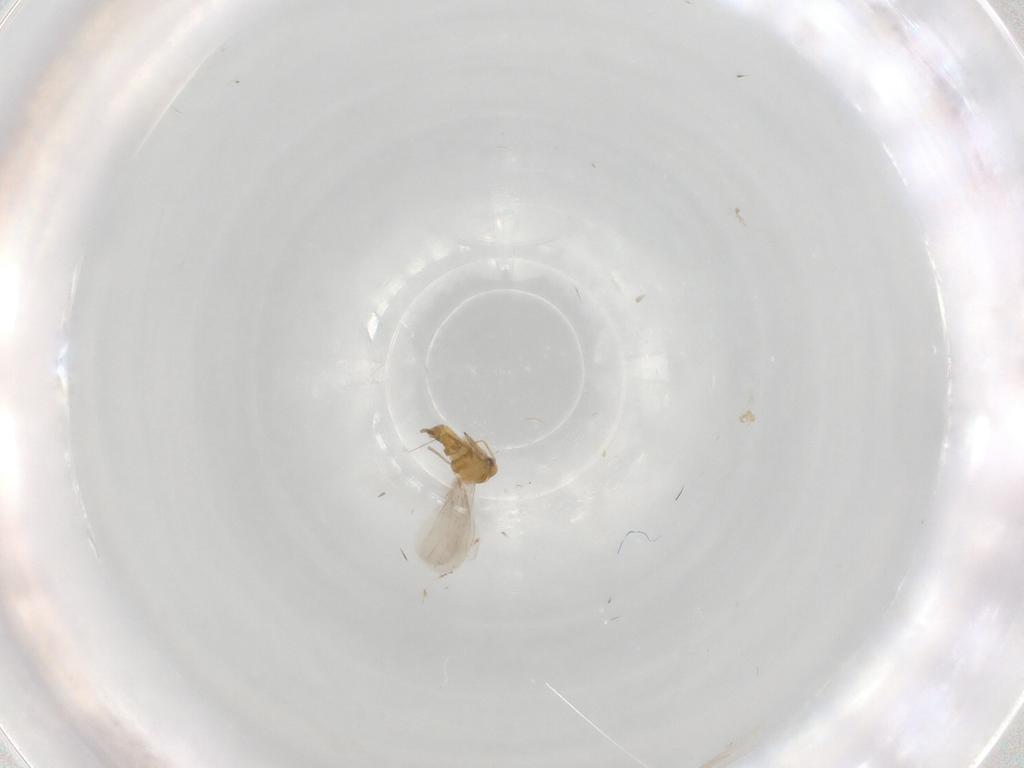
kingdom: Animalia
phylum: Arthropoda
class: Insecta
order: Hemiptera
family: Aleyrodidae
